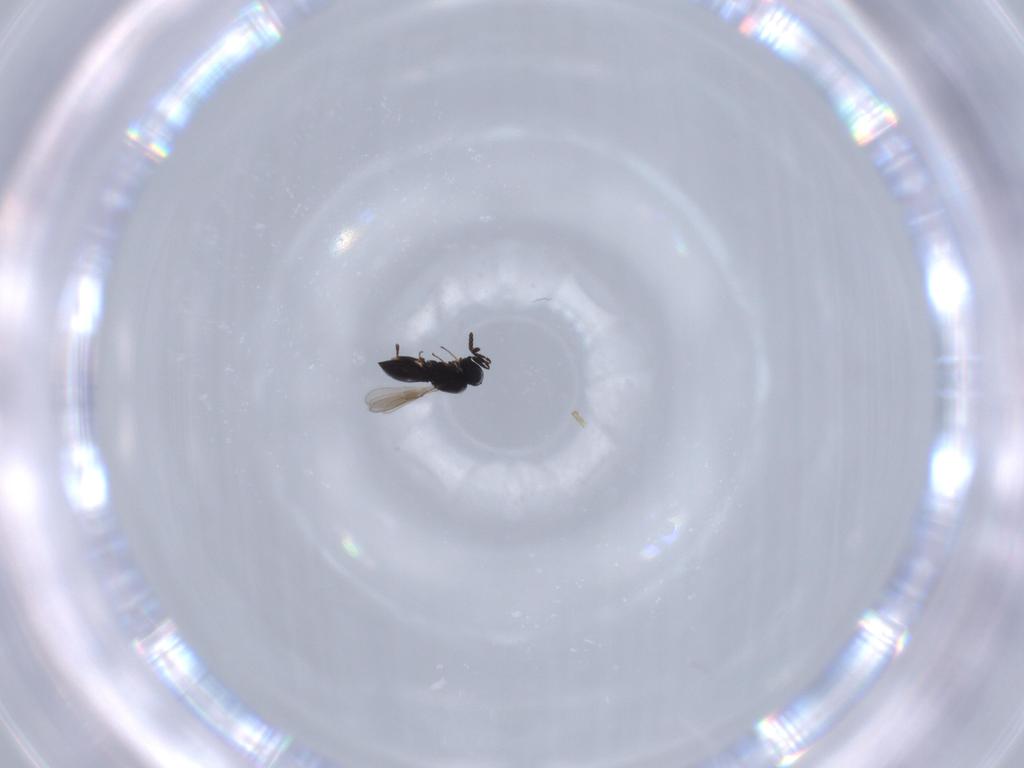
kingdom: Animalia
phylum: Arthropoda
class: Insecta
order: Hymenoptera
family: Scelionidae
